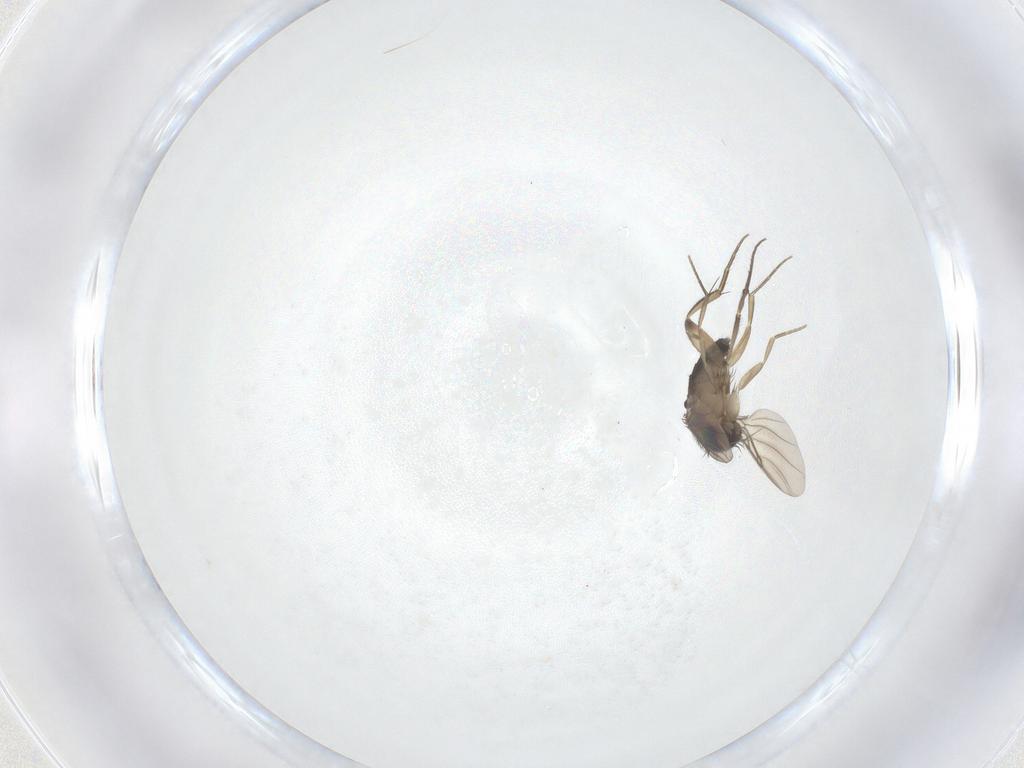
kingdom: Animalia
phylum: Arthropoda
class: Insecta
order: Diptera
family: Phoridae
